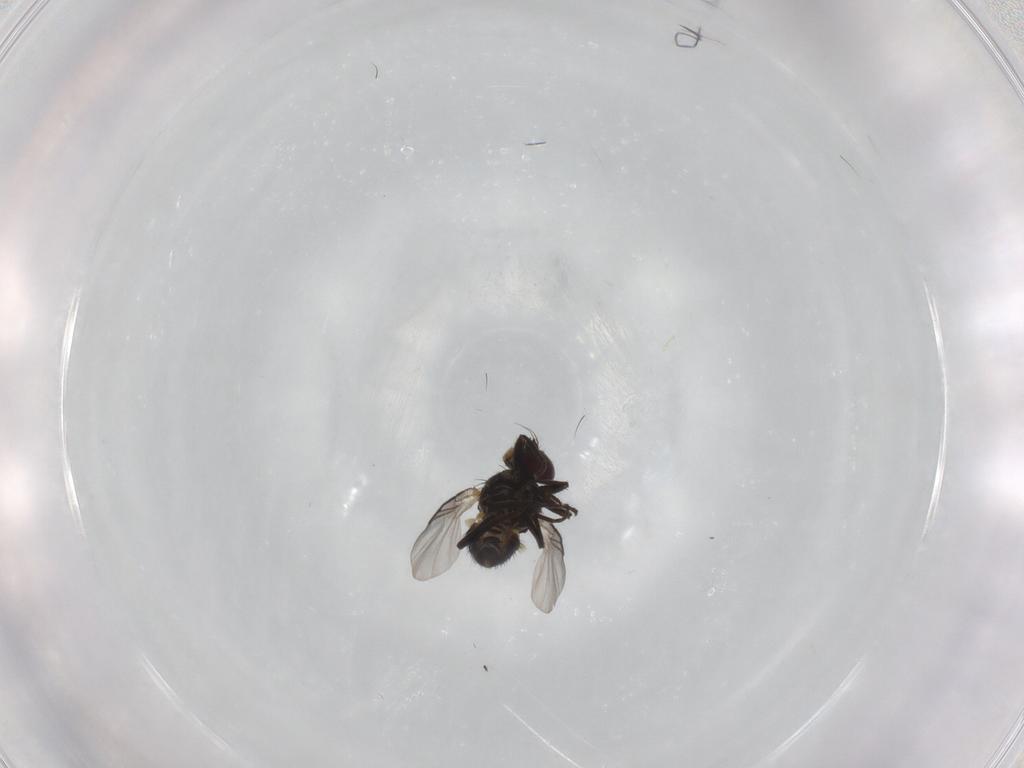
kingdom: Animalia
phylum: Arthropoda
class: Insecta
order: Diptera
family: Agromyzidae
